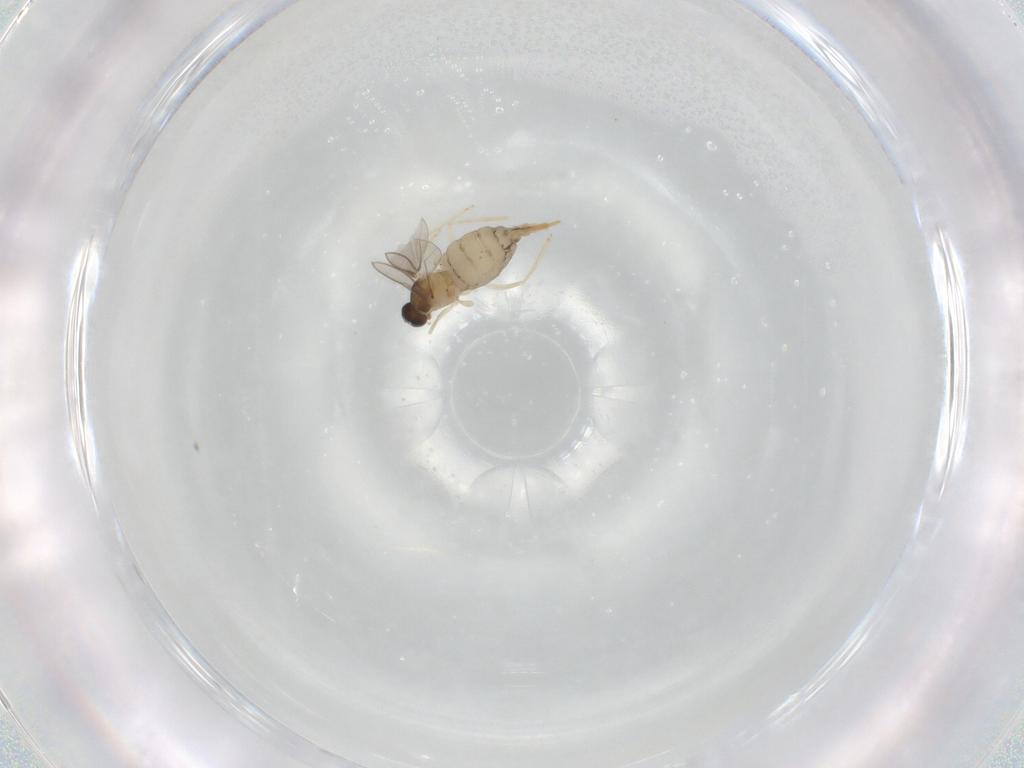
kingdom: Animalia
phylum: Arthropoda
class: Insecta
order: Diptera
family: Cecidomyiidae
